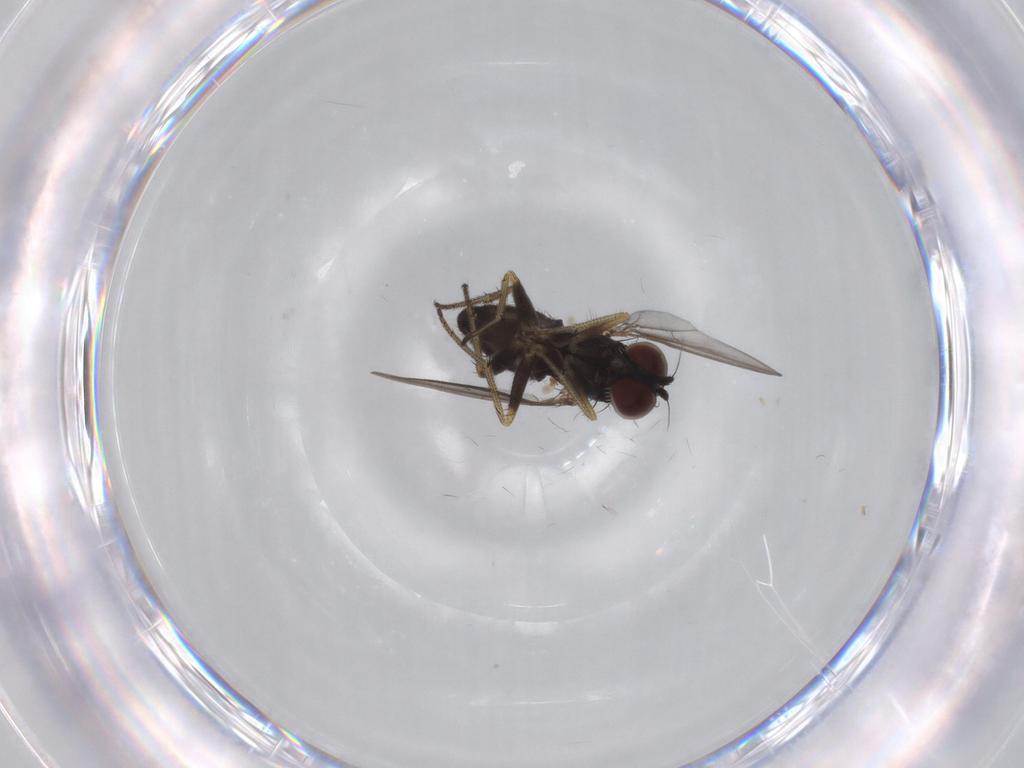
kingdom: Animalia
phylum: Arthropoda
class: Insecta
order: Diptera
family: Dolichopodidae
